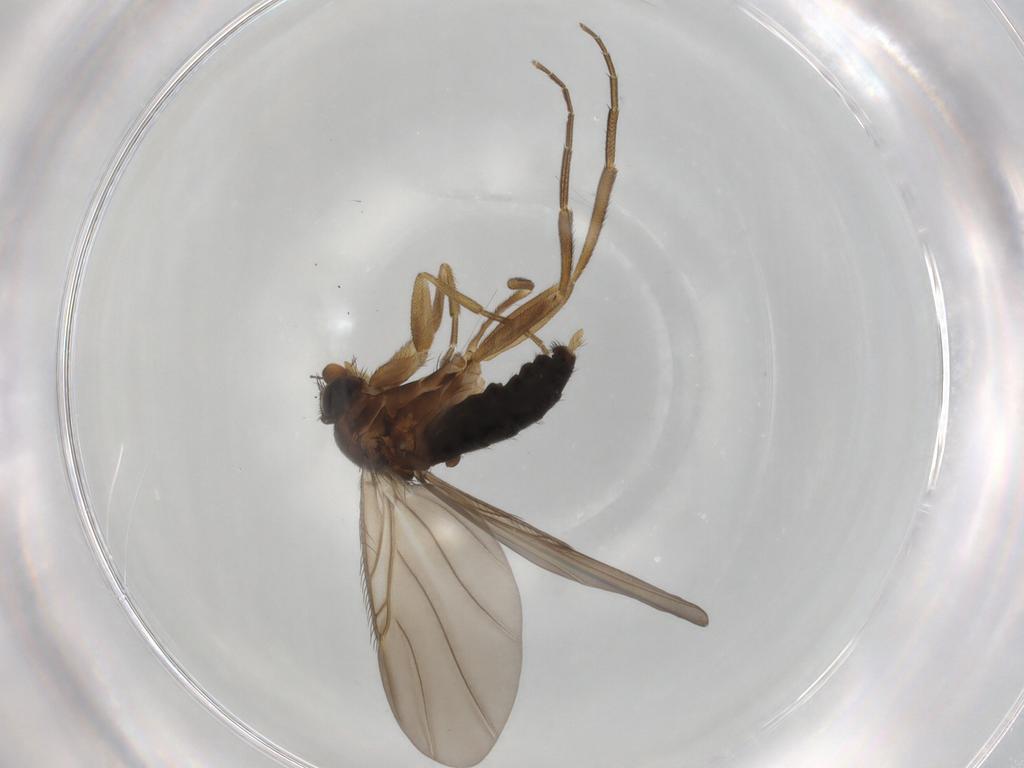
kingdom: Animalia
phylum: Arthropoda
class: Insecta
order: Diptera
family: Phoridae
